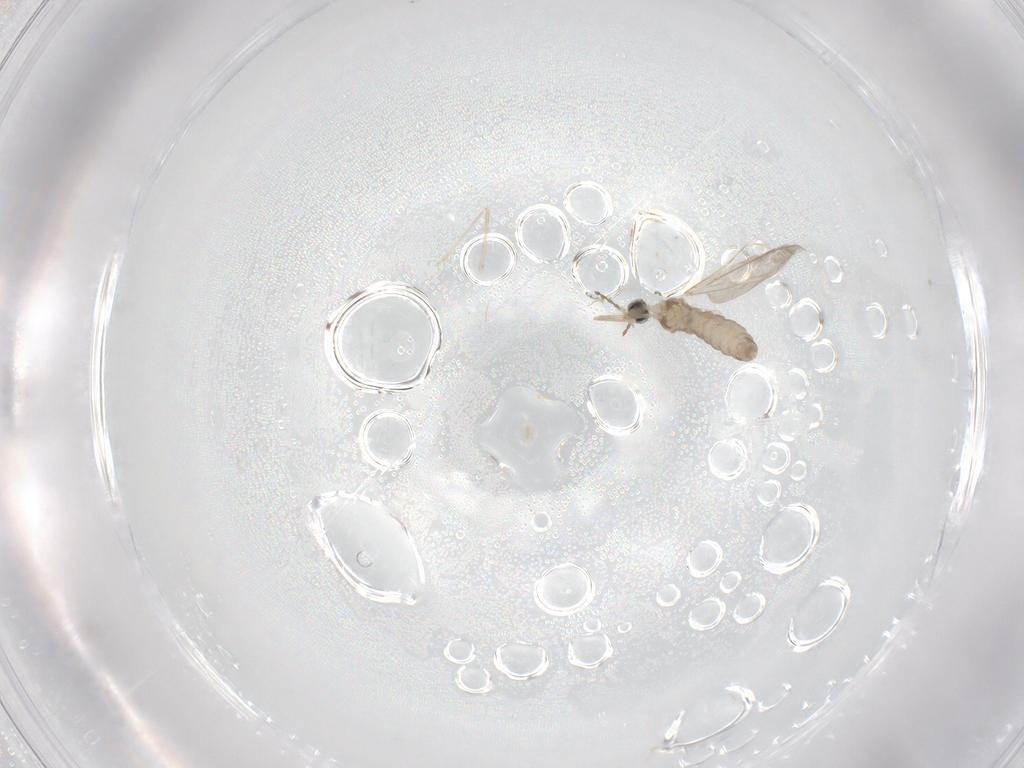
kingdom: Animalia
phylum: Arthropoda
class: Insecta
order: Diptera
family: Cecidomyiidae
